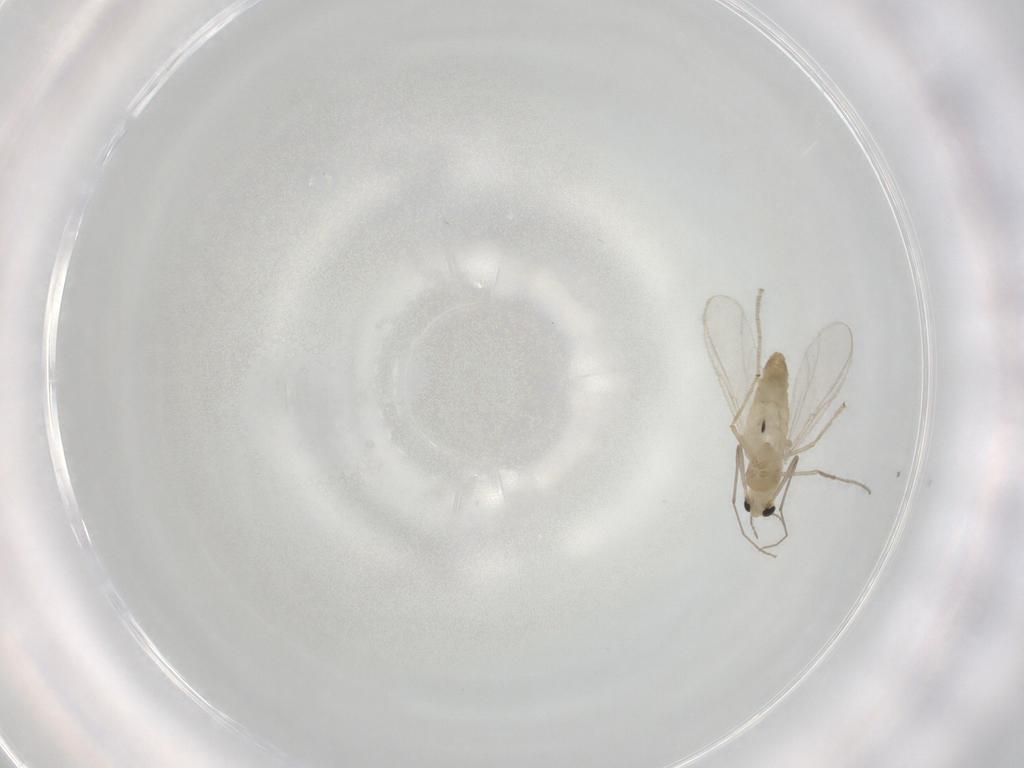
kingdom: Animalia
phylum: Arthropoda
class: Insecta
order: Diptera
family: Chironomidae
